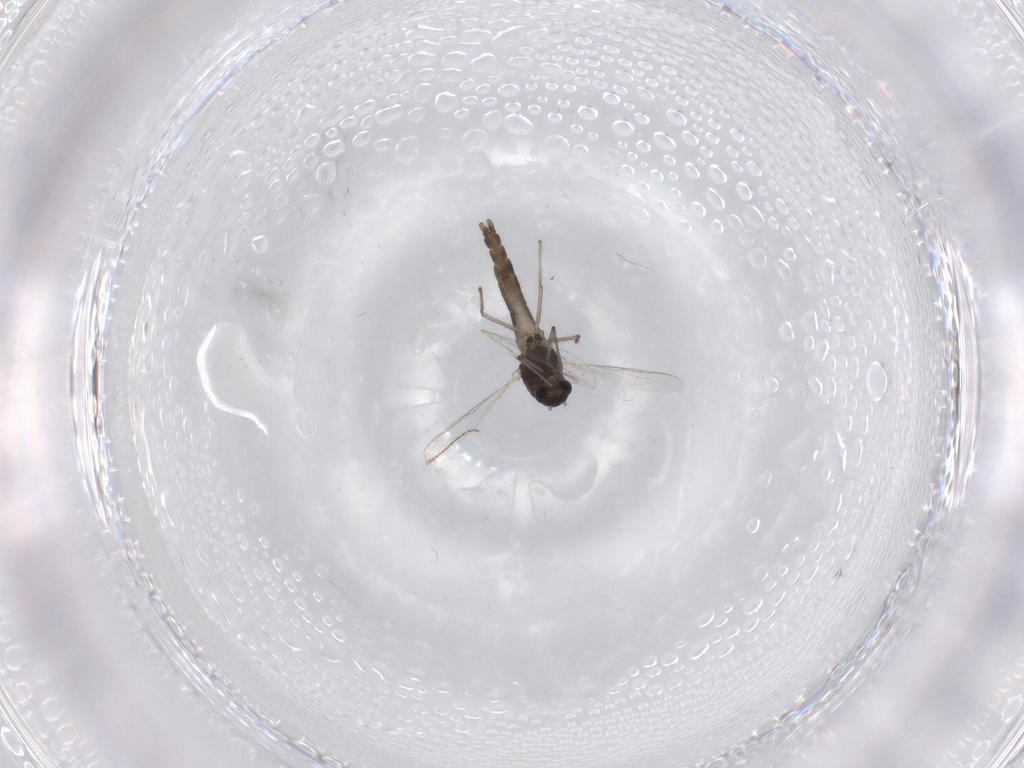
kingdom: Animalia
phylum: Arthropoda
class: Insecta
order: Diptera
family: Chironomidae
